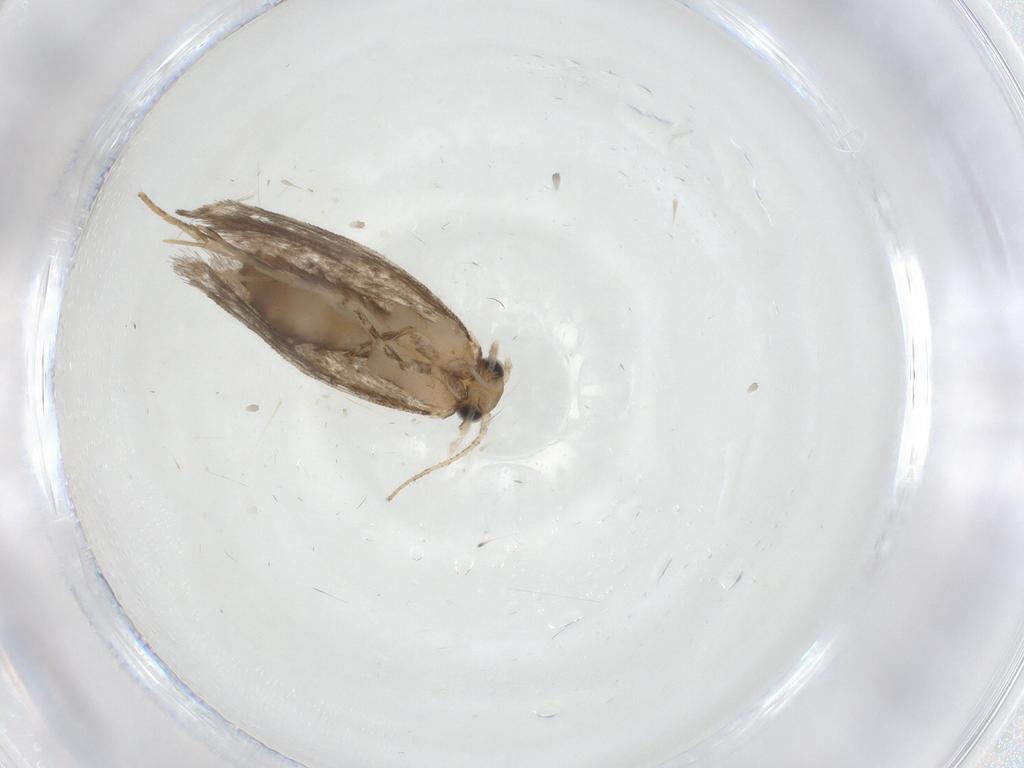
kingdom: Animalia
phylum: Arthropoda
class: Insecta
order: Lepidoptera
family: Tineidae
